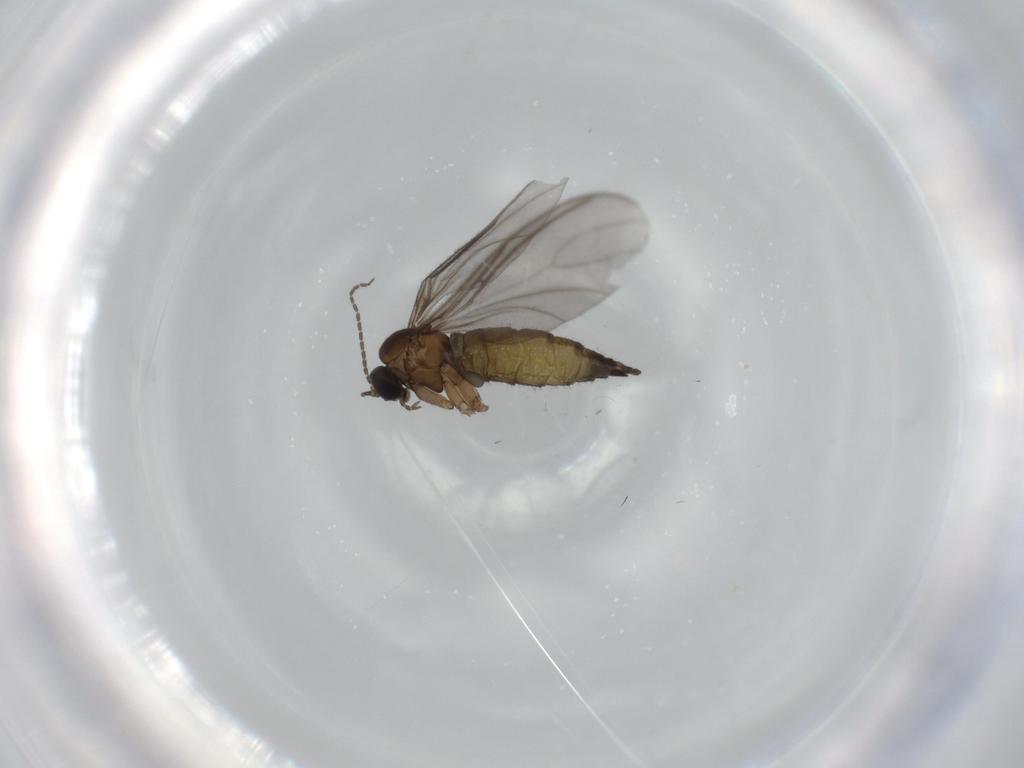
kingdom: Animalia
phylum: Arthropoda
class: Insecta
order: Diptera
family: Sciaridae
